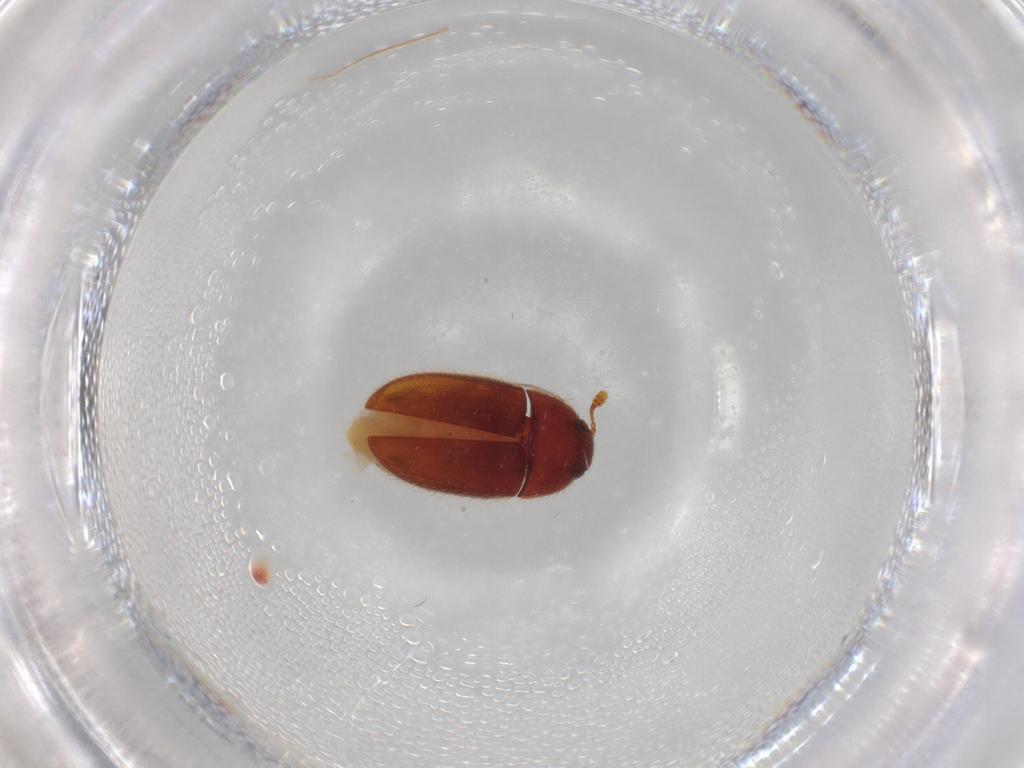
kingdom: Animalia
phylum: Arthropoda
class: Insecta
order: Coleoptera
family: Biphyllidae
